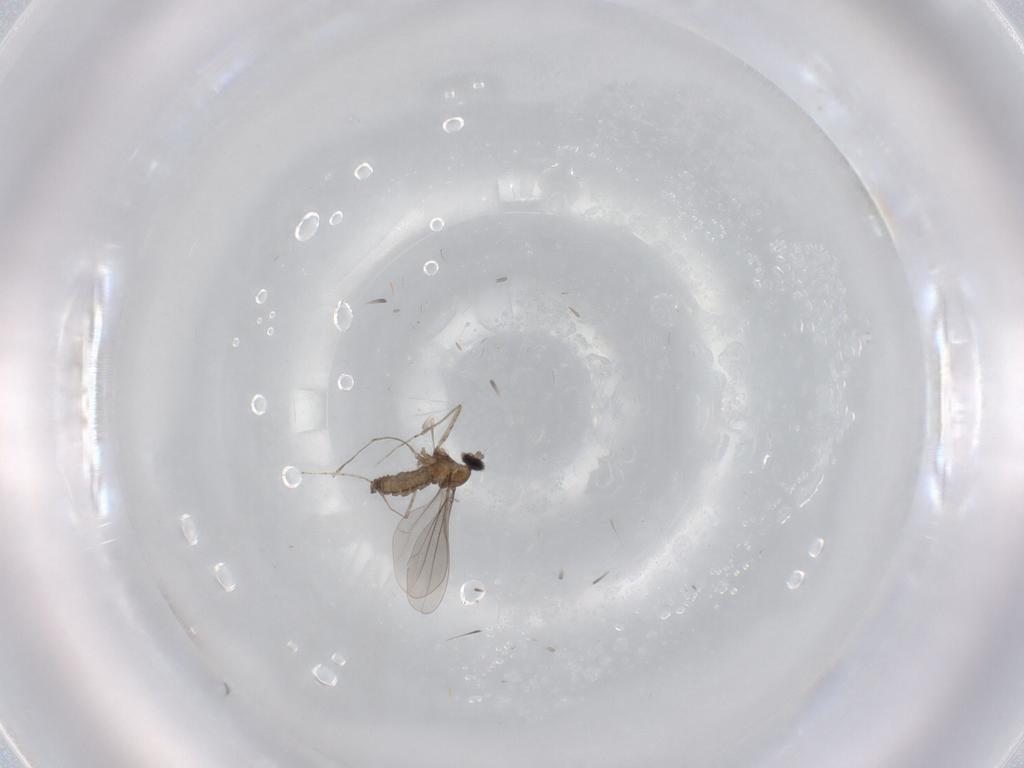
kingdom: Animalia
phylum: Arthropoda
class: Insecta
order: Diptera
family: Cecidomyiidae
